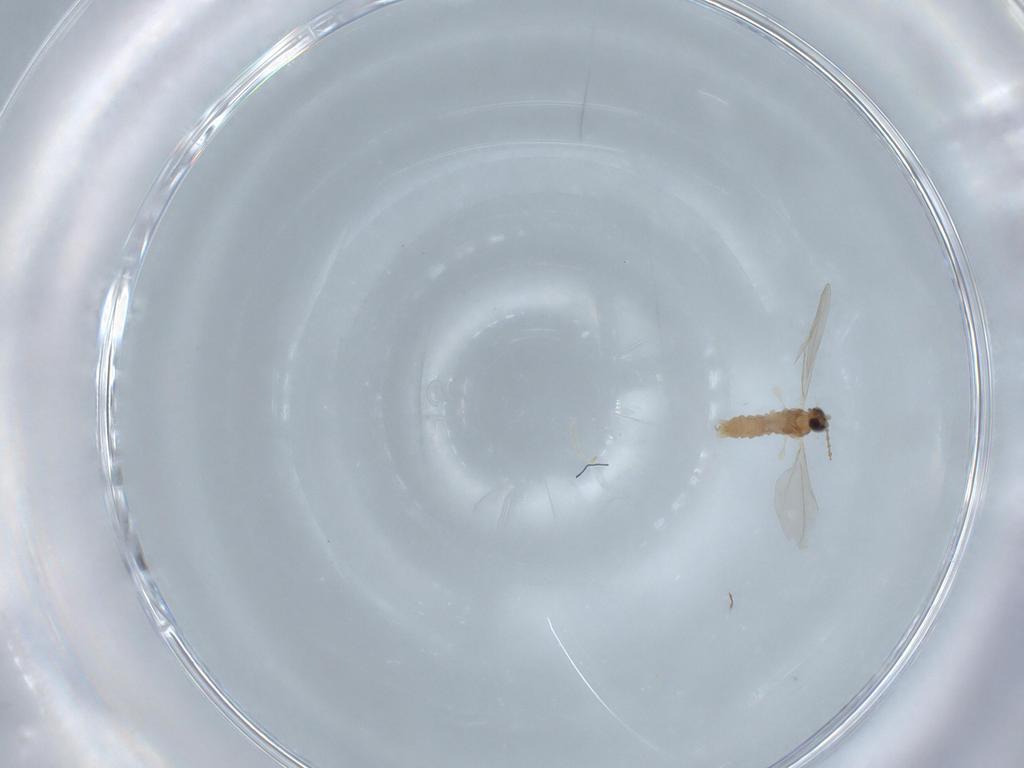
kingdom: Animalia
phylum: Arthropoda
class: Insecta
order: Diptera
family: Cecidomyiidae
